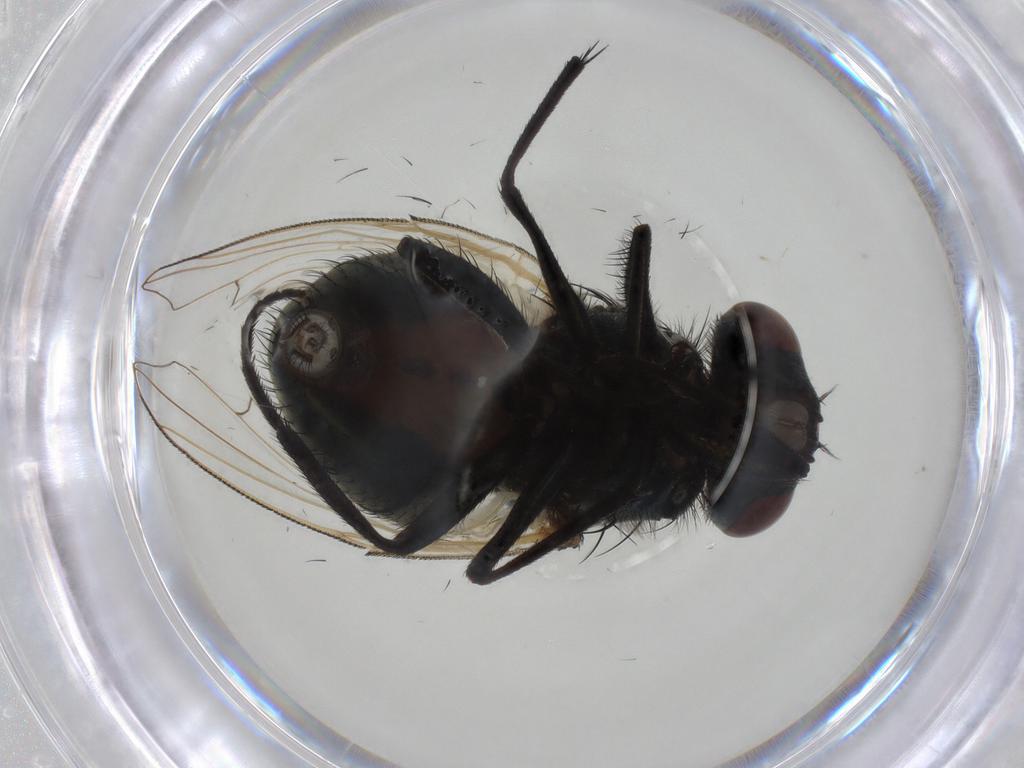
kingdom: Animalia
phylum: Arthropoda
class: Insecta
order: Diptera
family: Muscidae
